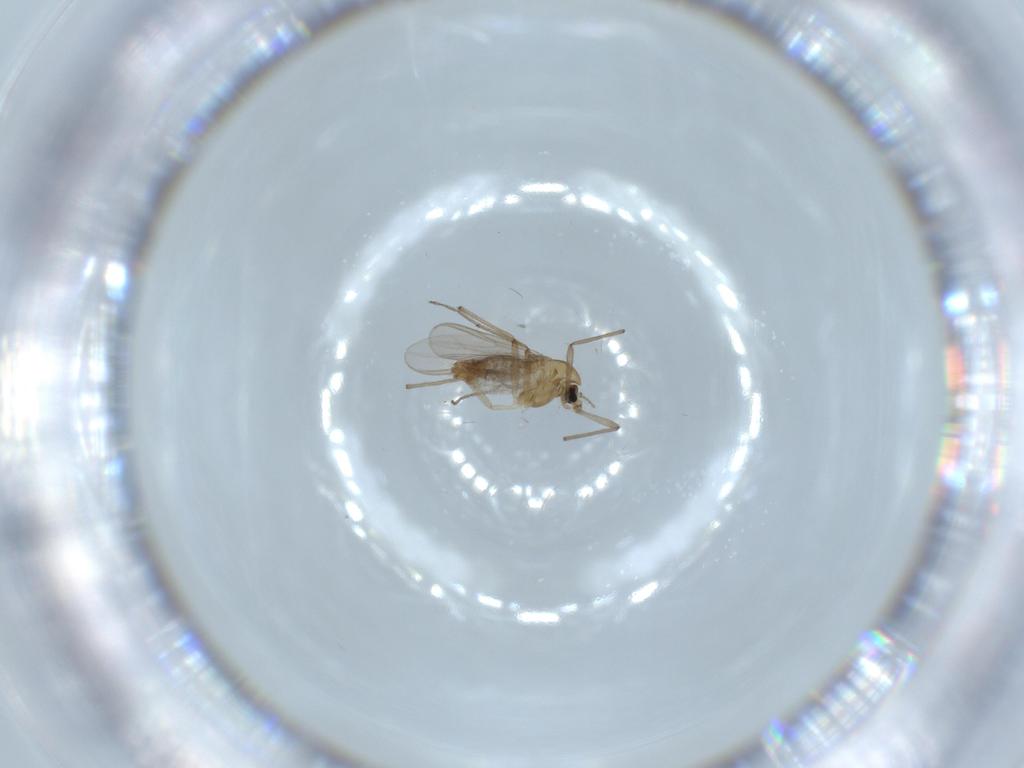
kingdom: Animalia
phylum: Arthropoda
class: Insecta
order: Diptera
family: Chironomidae
